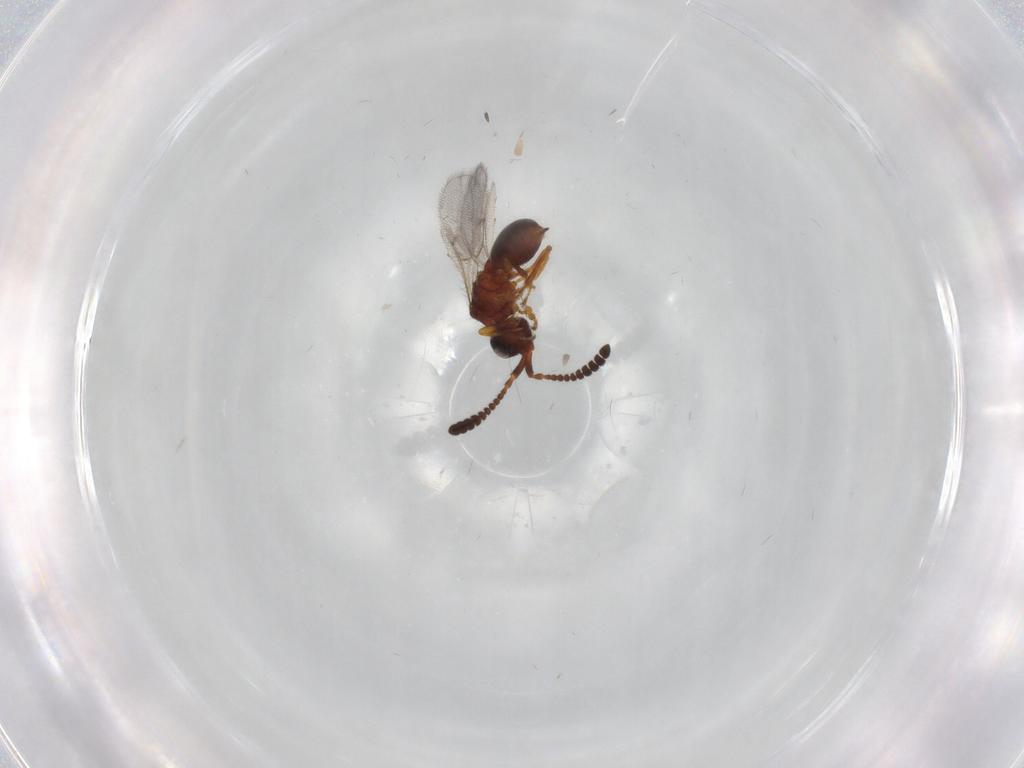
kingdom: Animalia
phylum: Arthropoda
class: Insecta
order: Hymenoptera
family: Diapriidae
